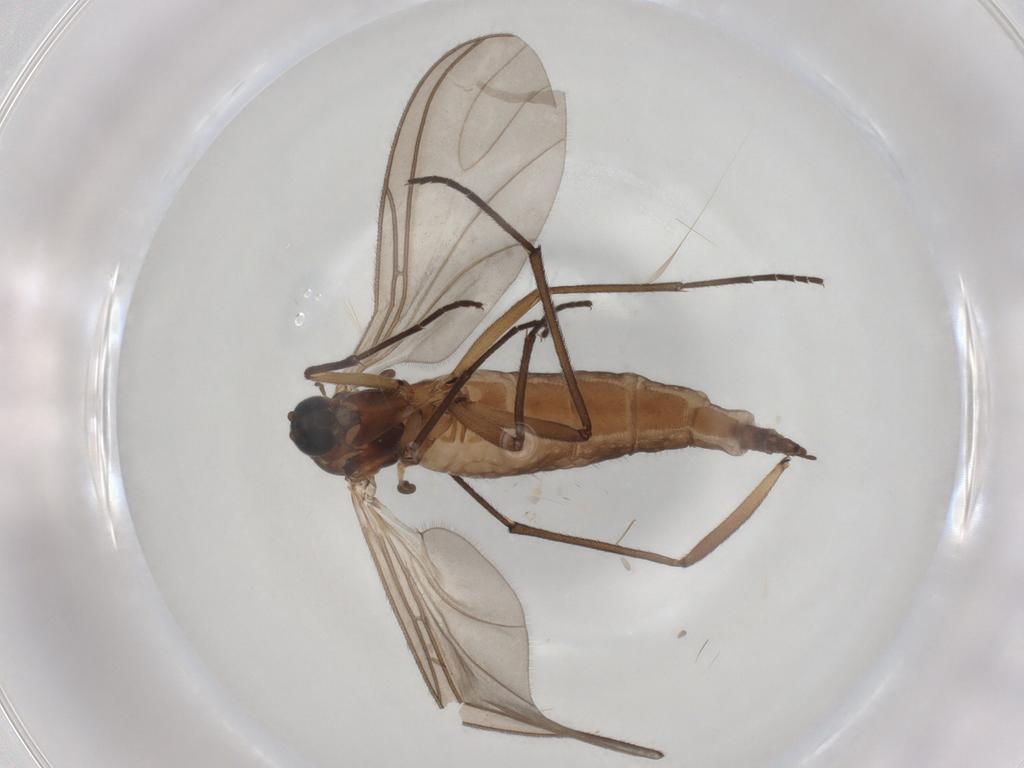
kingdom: Animalia
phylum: Arthropoda
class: Insecta
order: Diptera
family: Sciaridae
